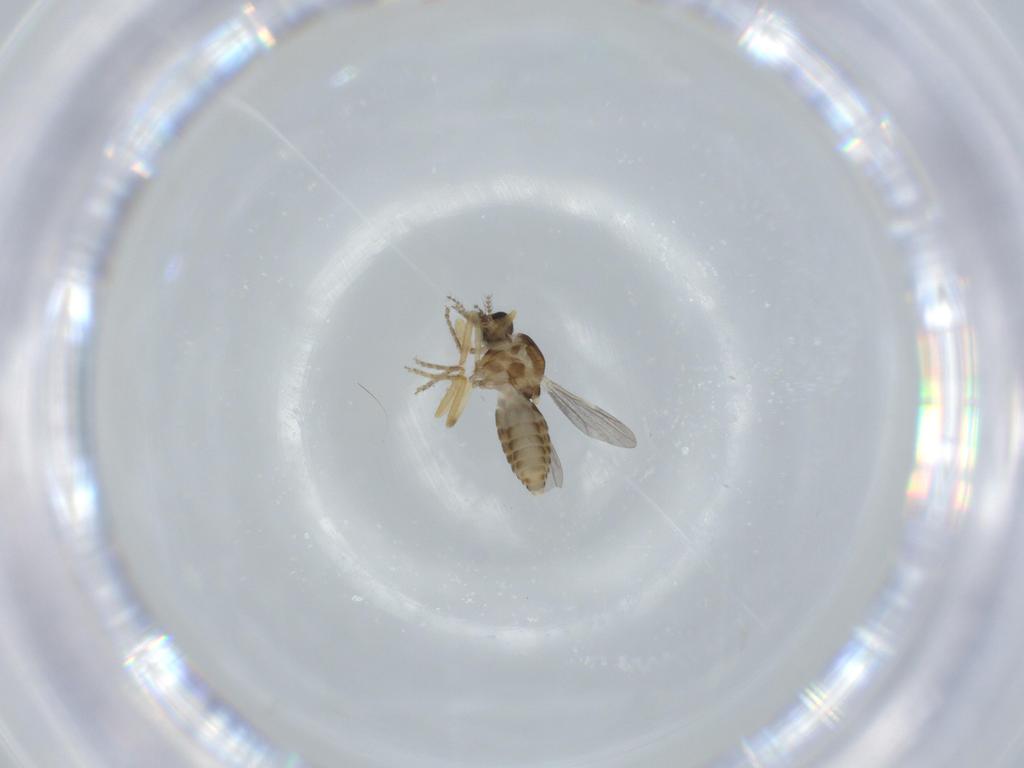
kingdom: Animalia
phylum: Arthropoda
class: Insecta
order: Diptera
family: Ceratopogonidae
